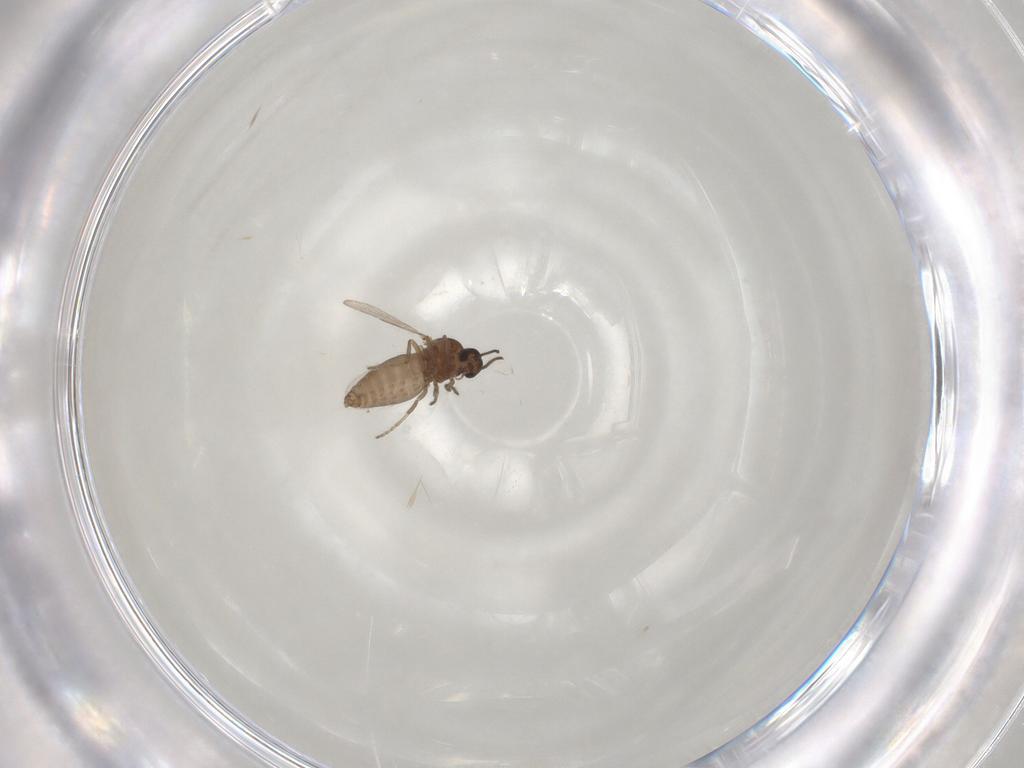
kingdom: Animalia
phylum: Arthropoda
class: Insecta
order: Diptera
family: Ceratopogonidae
